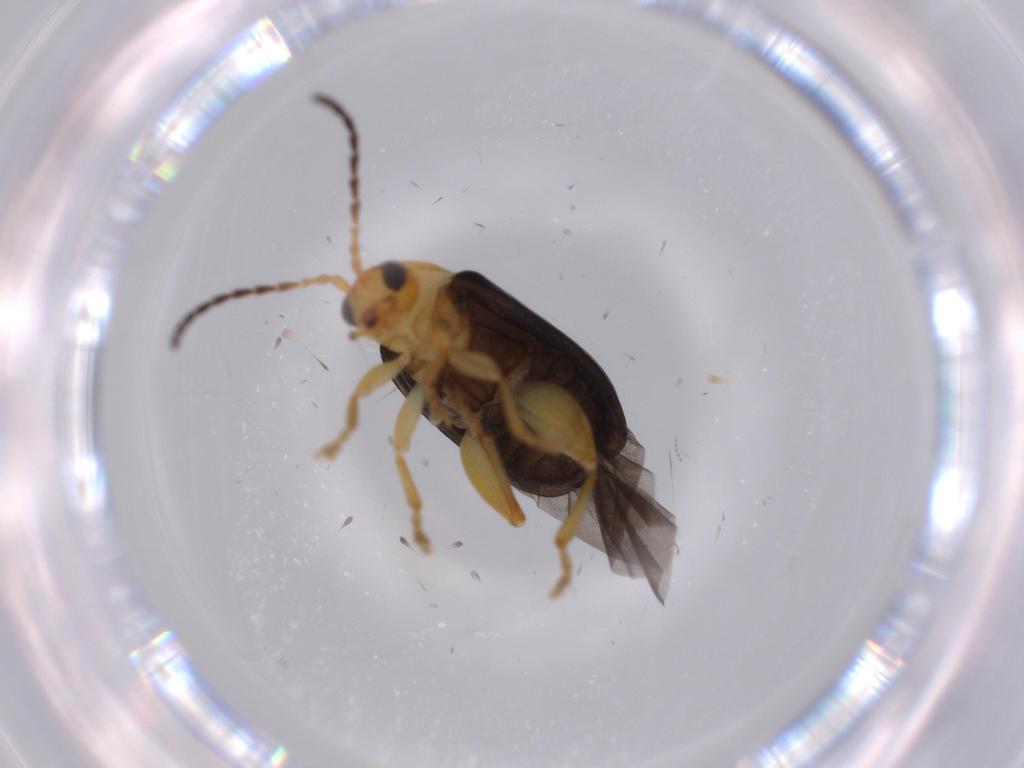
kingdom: Animalia
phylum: Arthropoda
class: Insecta
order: Coleoptera
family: Chrysomelidae
